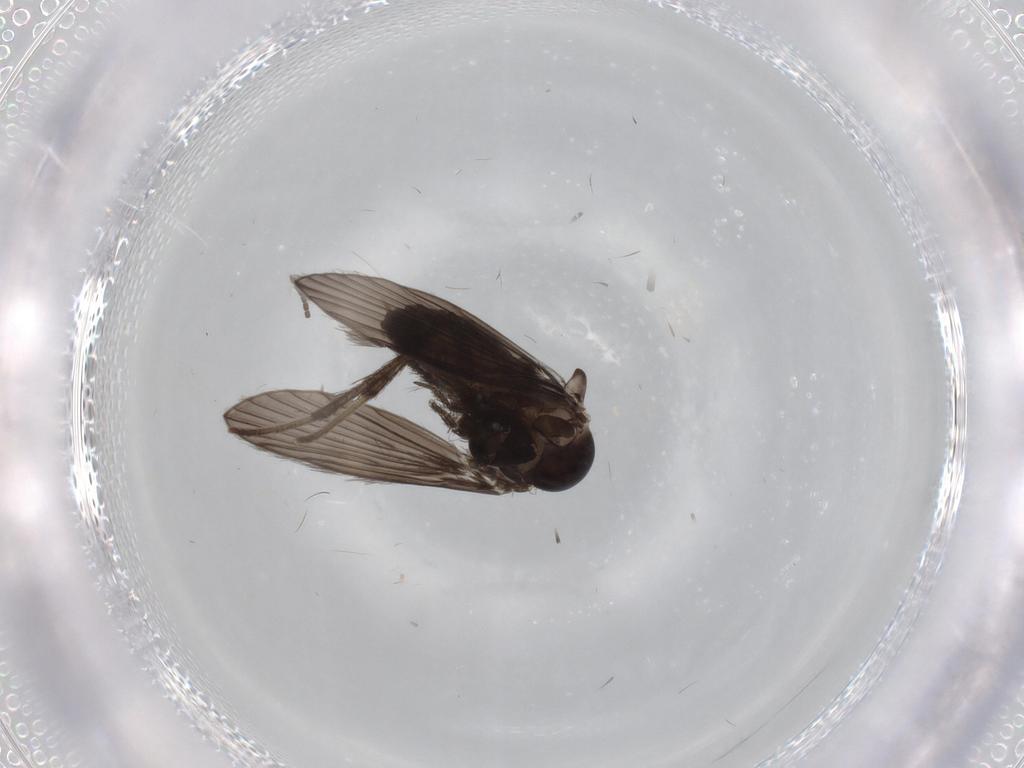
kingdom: Animalia
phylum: Arthropoda
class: Insecta
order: Diptera
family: Psychodidae
